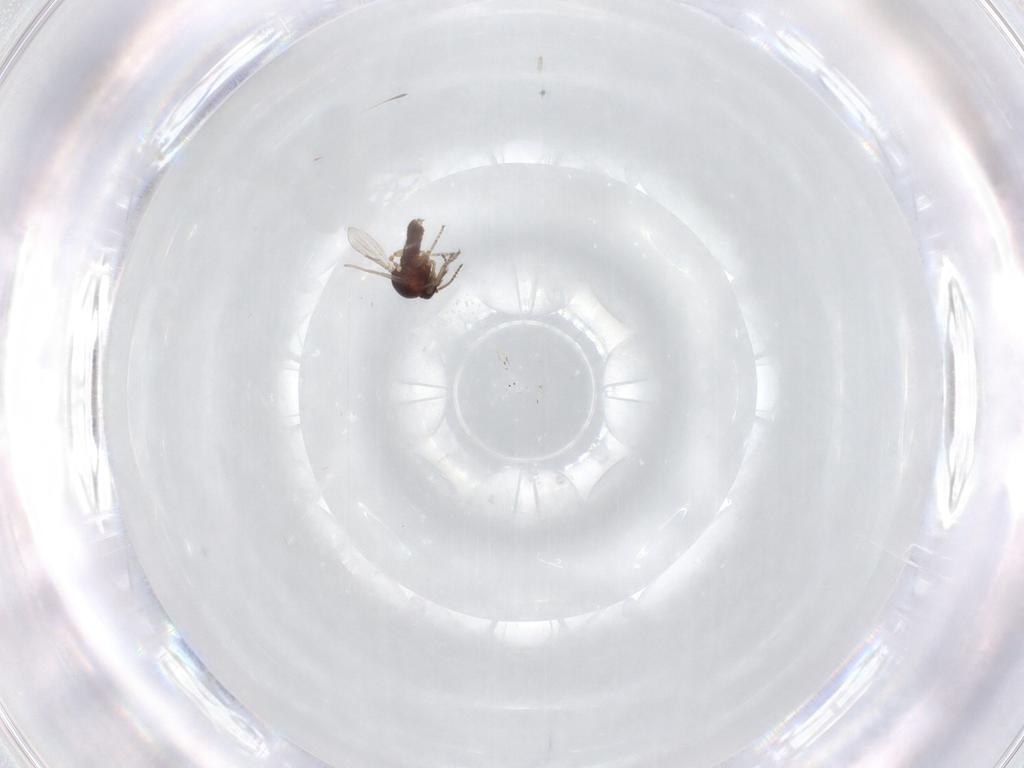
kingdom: Animalia
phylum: Arthropoda
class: Insecta
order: Diptera
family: Ceratopogonidae
